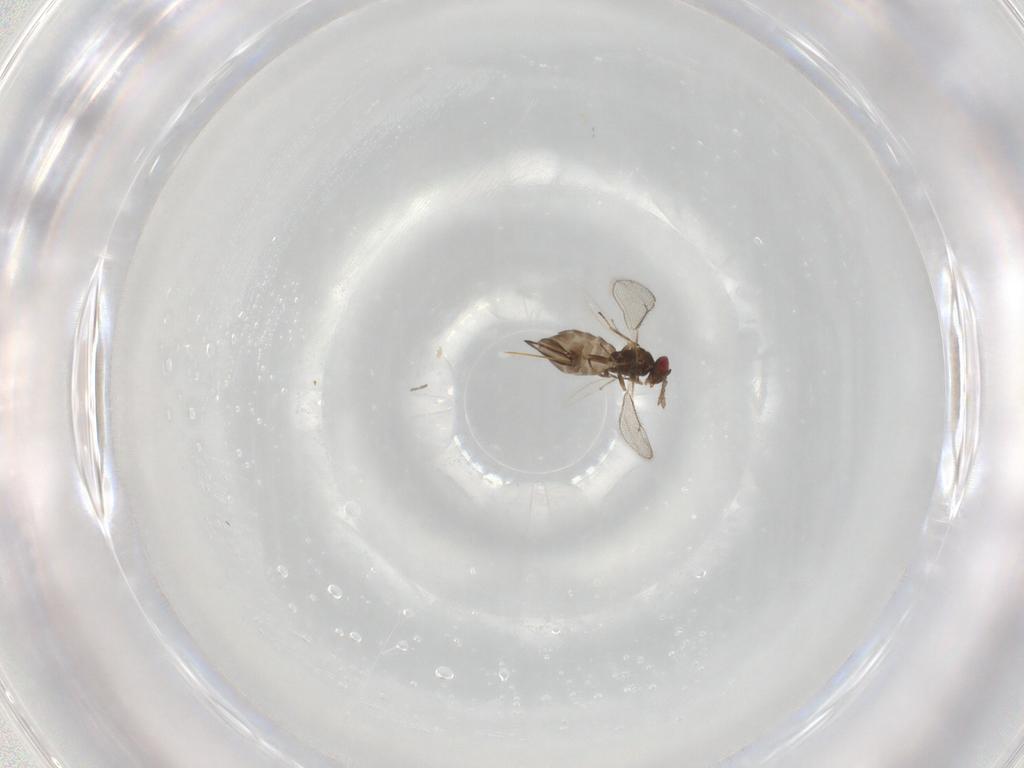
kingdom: Animalia
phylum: Arthropoda
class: Insecta
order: Hymenoptera
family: Eulophidae
